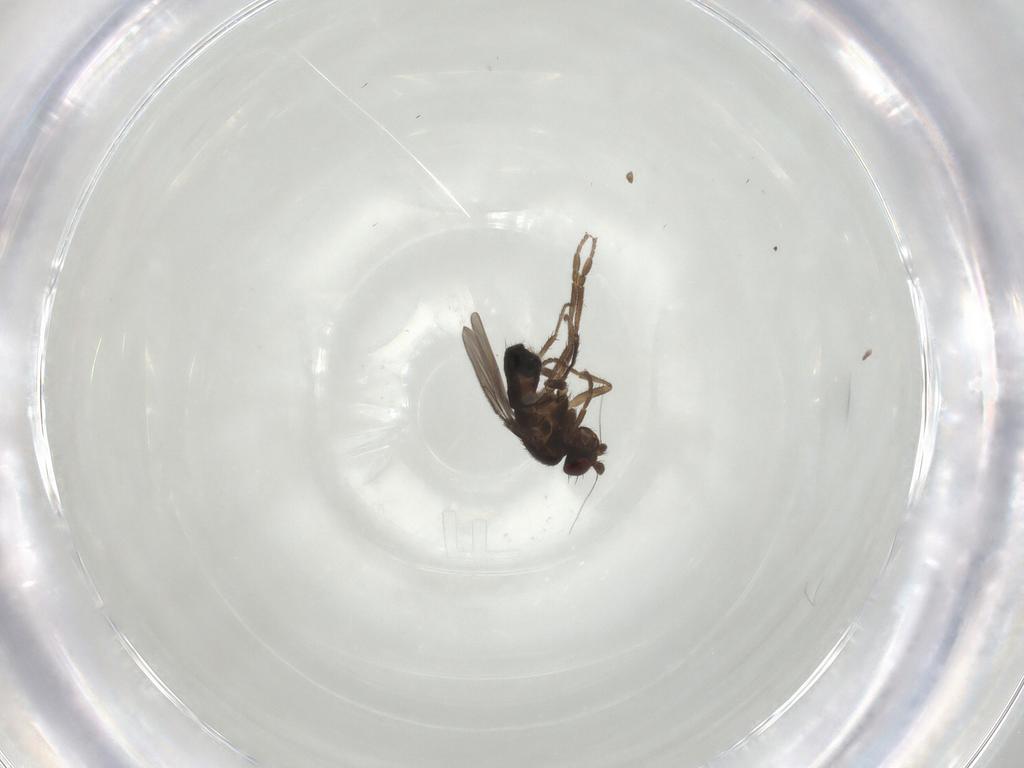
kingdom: Animalia
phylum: Arthropoda
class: Insecta
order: Diptera
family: Sphaeroceridae
